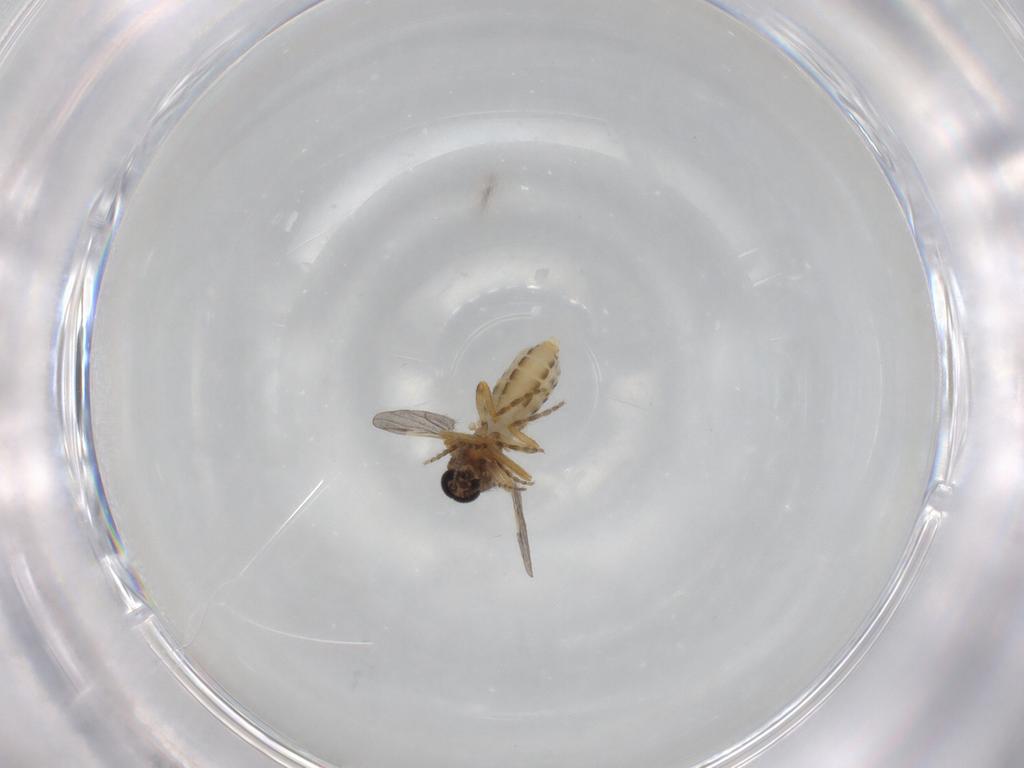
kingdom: Animalia
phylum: Arthropoda
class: Insecta
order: Diptera
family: Ceratopogonidae
